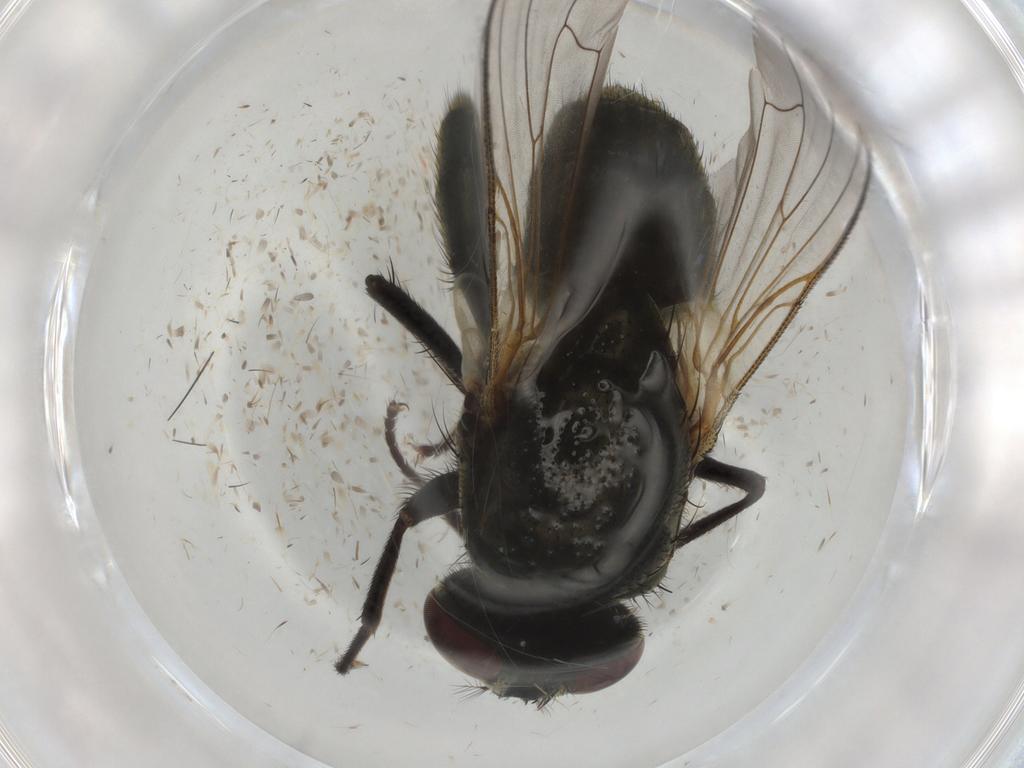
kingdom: Animalia
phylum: Arthropoda
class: Insecta
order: Diptera
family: Muscidae
